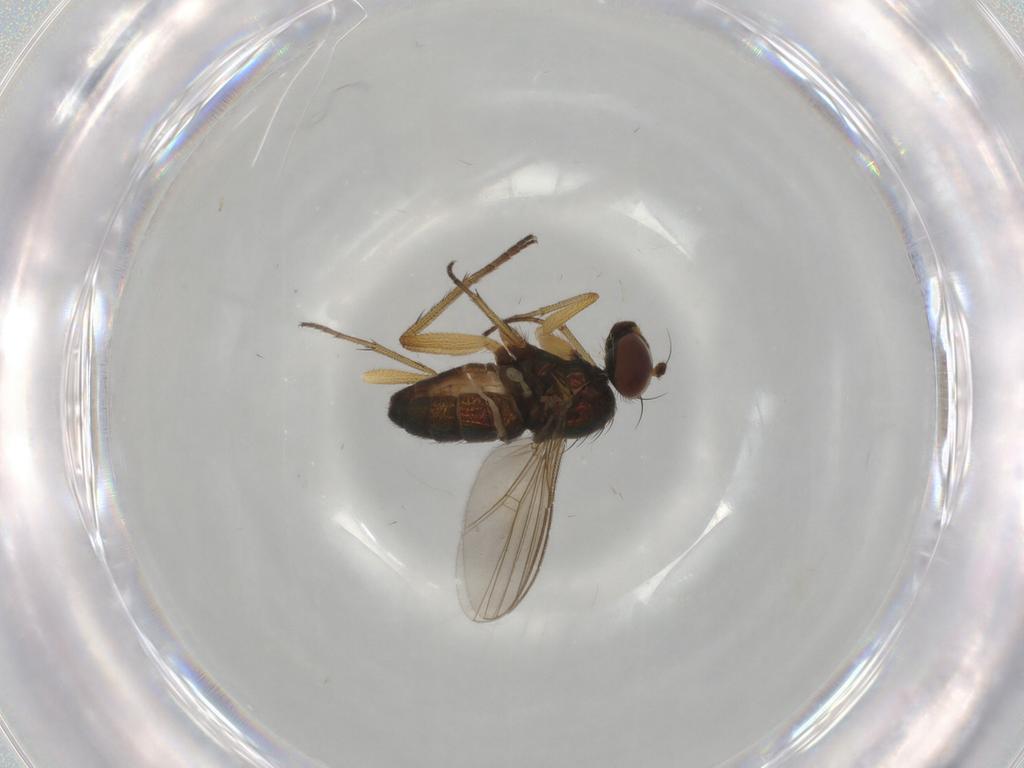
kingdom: Animalia
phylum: Arthropoda
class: Insecta
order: Diptera
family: Dolichopodidae
